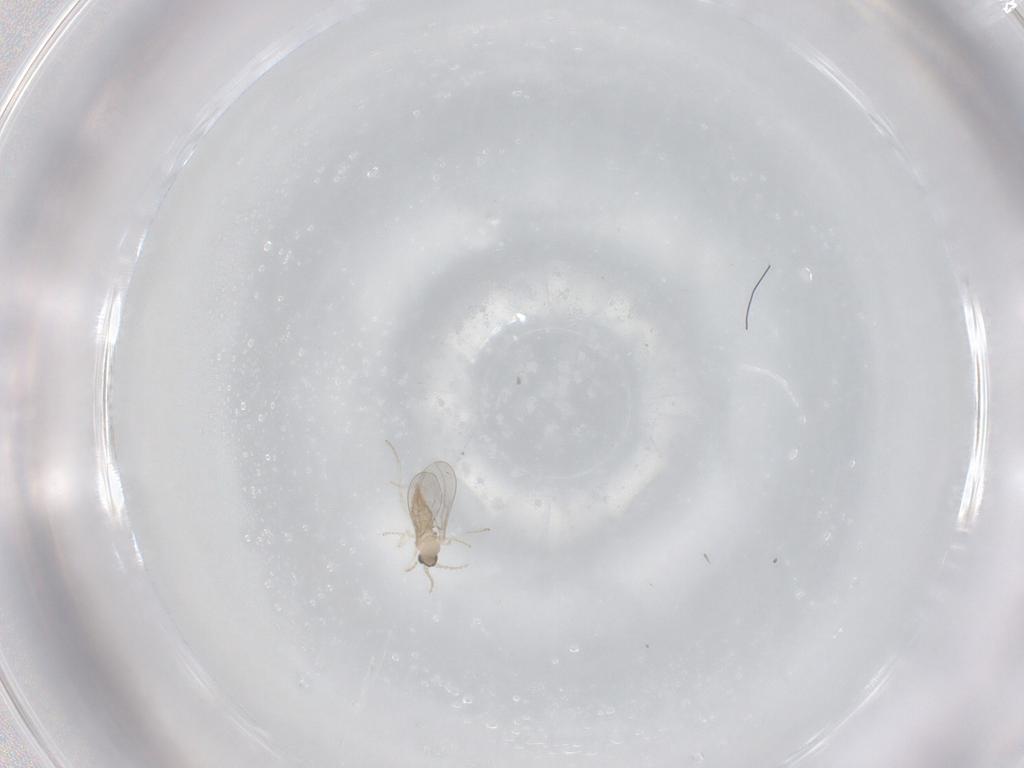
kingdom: Animalia
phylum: Arthropoda
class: Insecta
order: Diptera
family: Cecidomyiidae
